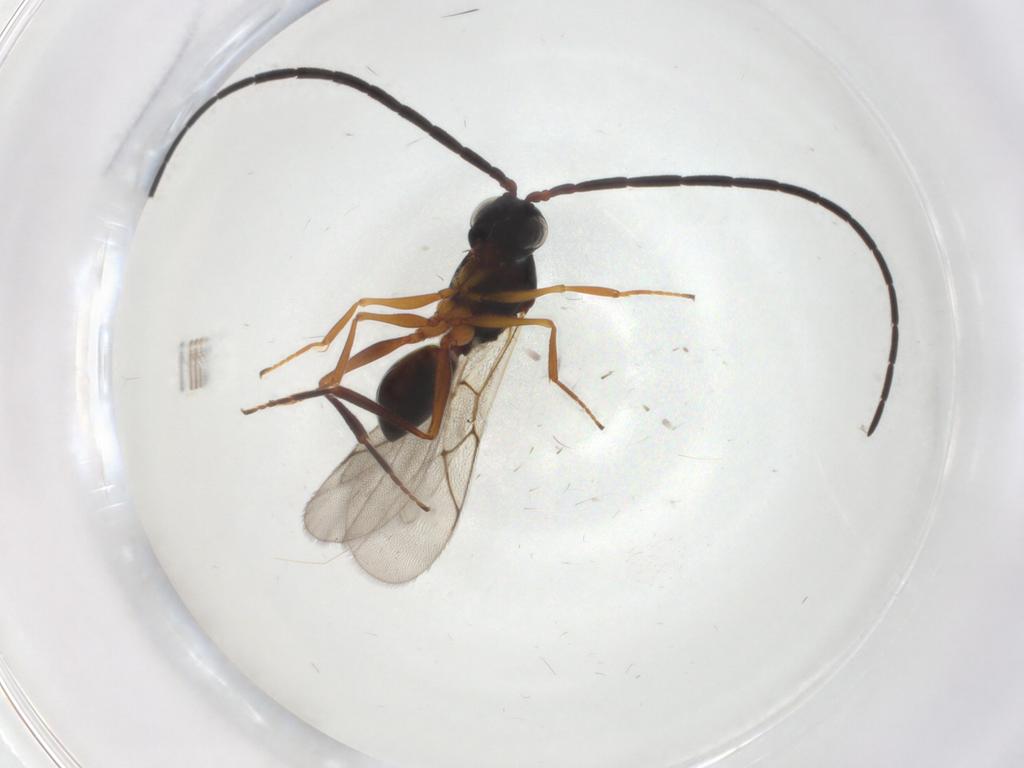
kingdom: Animalia
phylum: Arthropoda
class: Insecta
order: Hymenoptera
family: Figitidae
